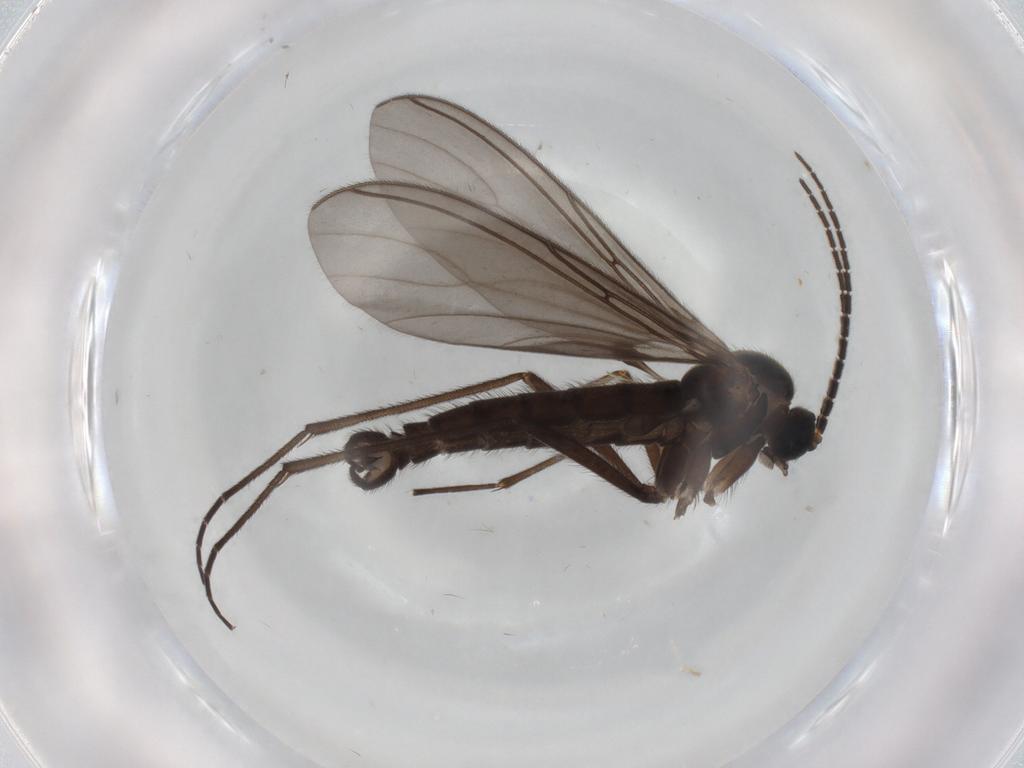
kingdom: Animalia
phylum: Arthropoda
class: Insecta
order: Diptera
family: Sciaridae
